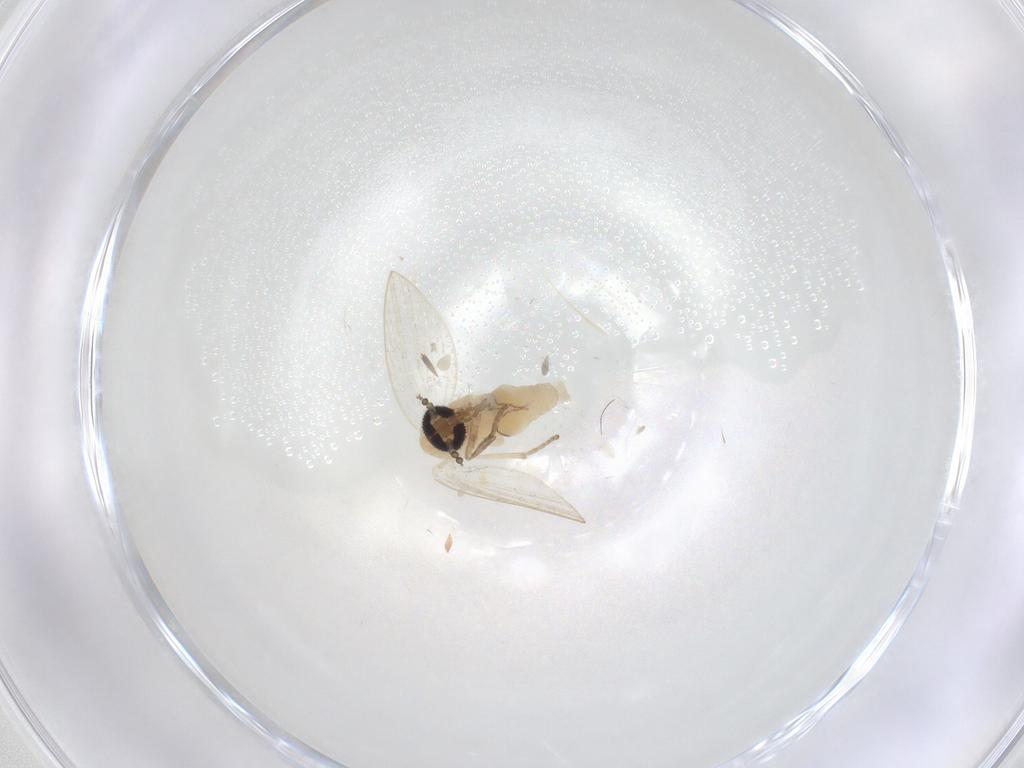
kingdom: Animalia
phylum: Arthropoda
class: Insecta
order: Diptera
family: Psychodidae
